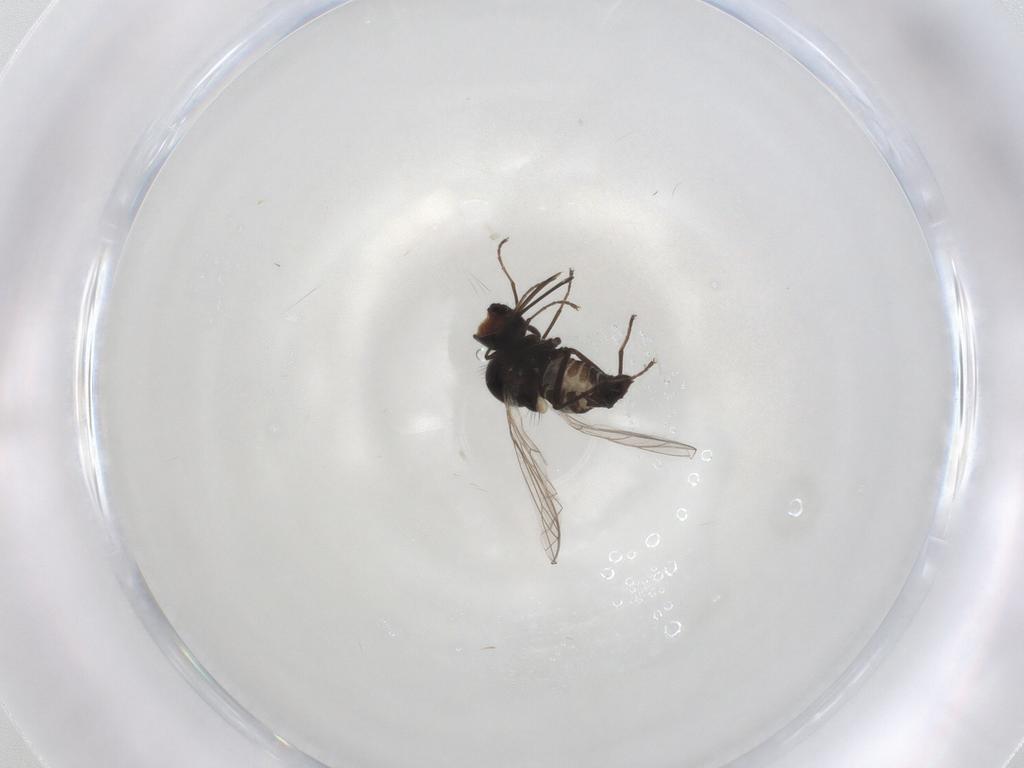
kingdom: Animalia
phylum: Arthropoda
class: Insecta
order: Diptera
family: Bombyliidae
